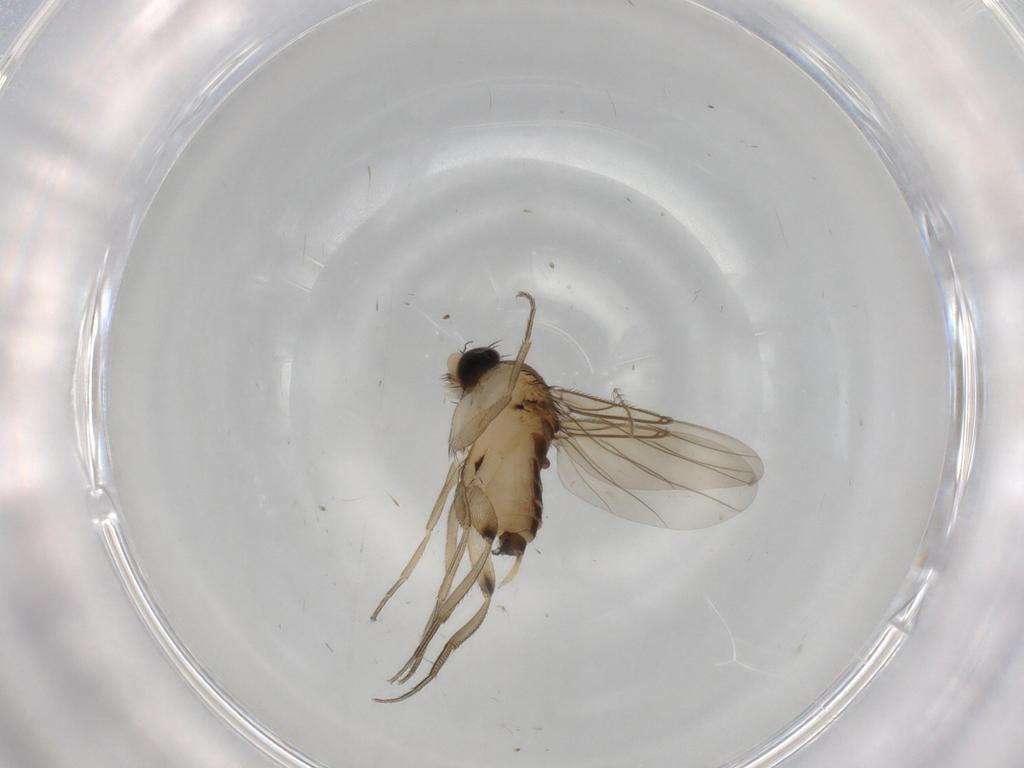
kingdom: Animalia
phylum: Arthropoda
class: Insecta
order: Diptera
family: Ceratopogonidae
